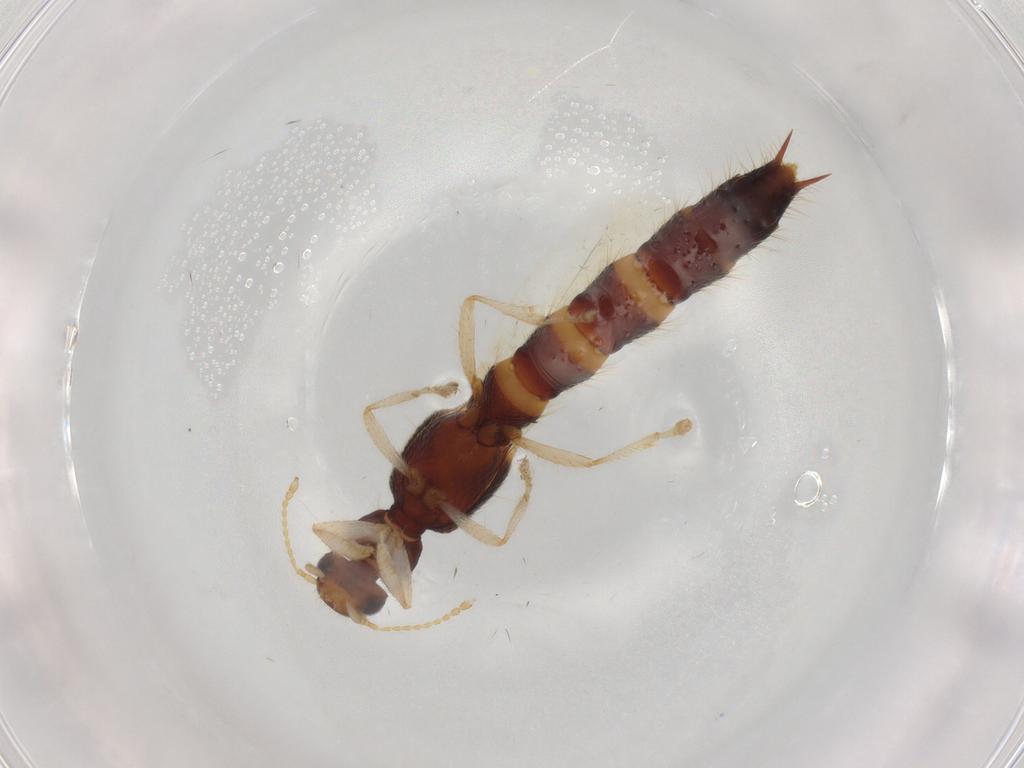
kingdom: Animalia
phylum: Arthropoda
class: Insecta
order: Coleoptera
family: Staphylinidae
